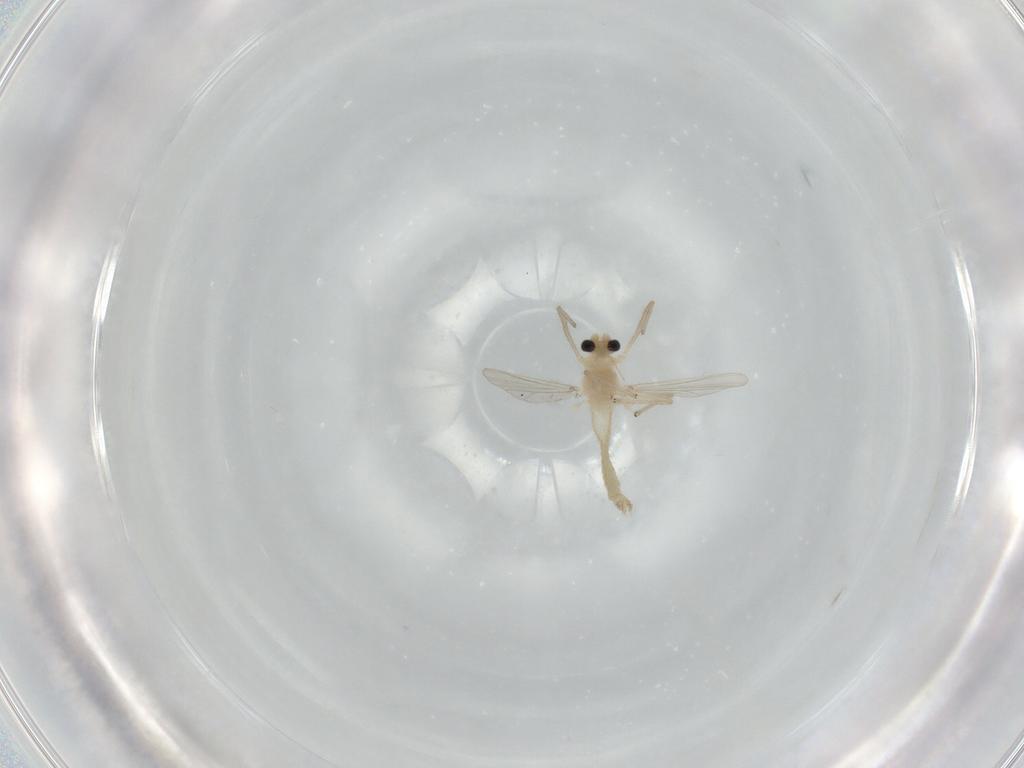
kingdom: Animalia
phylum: Arthropoda
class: Insecta
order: Diptera
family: Chironomidae
